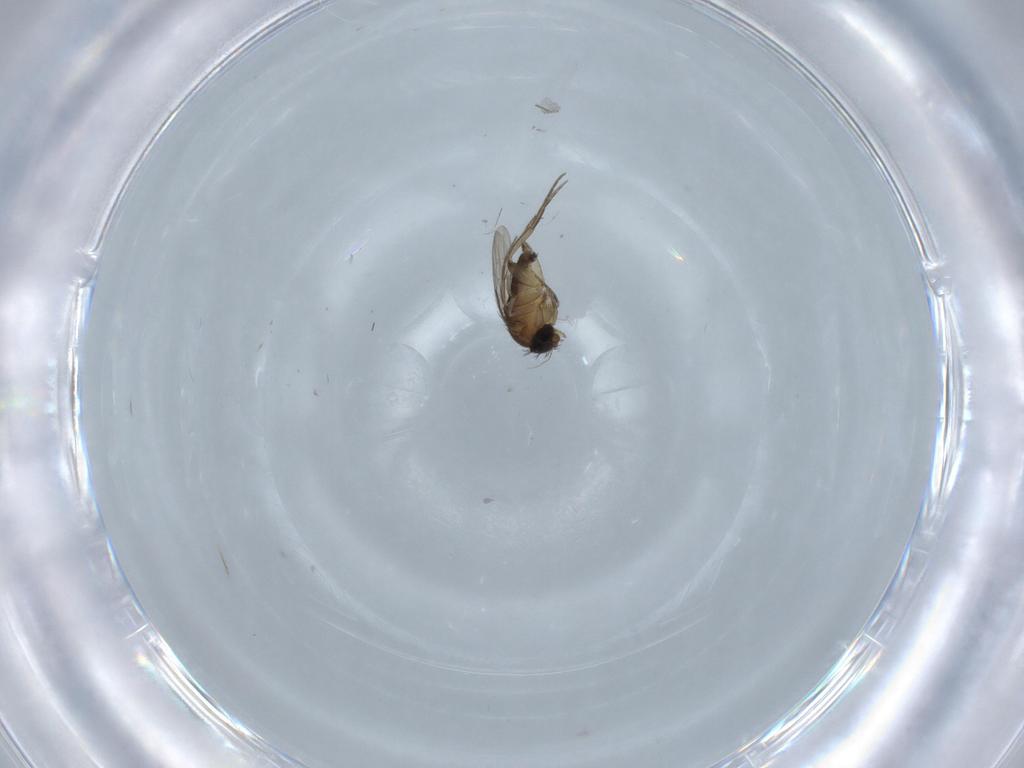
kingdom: Animalia
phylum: Arthropoda
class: Insecta
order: Diptera
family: Phoridae
